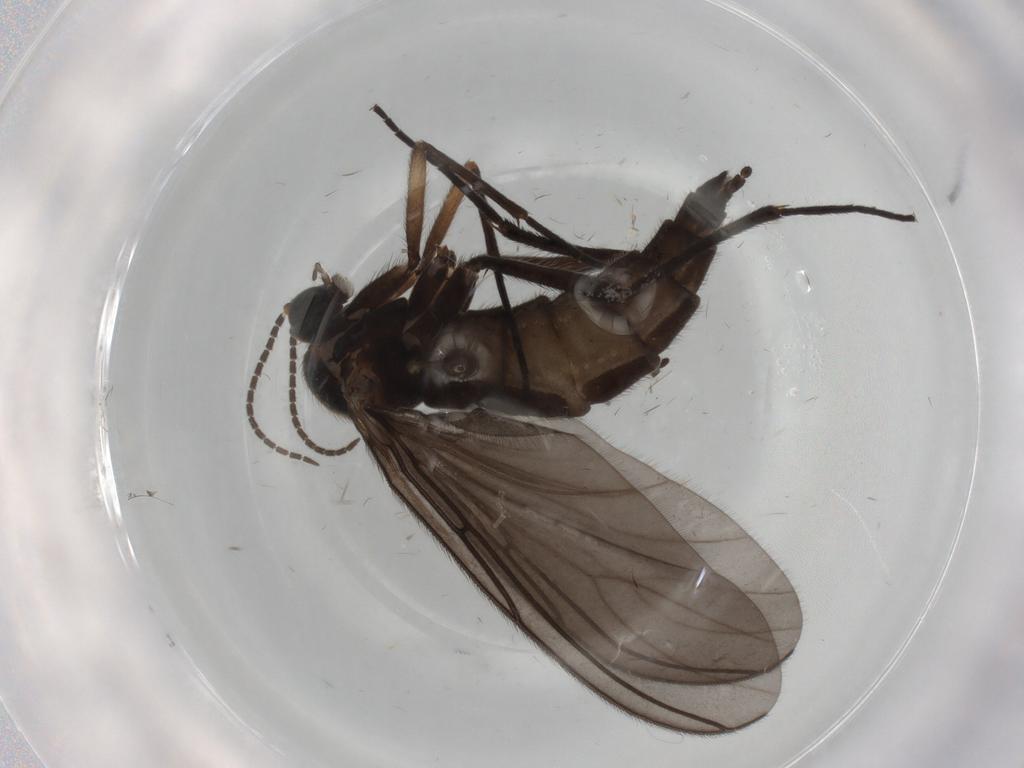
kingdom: Animalia
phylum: Arthropoda
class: Insecta
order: Diptera
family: Sciaridae
